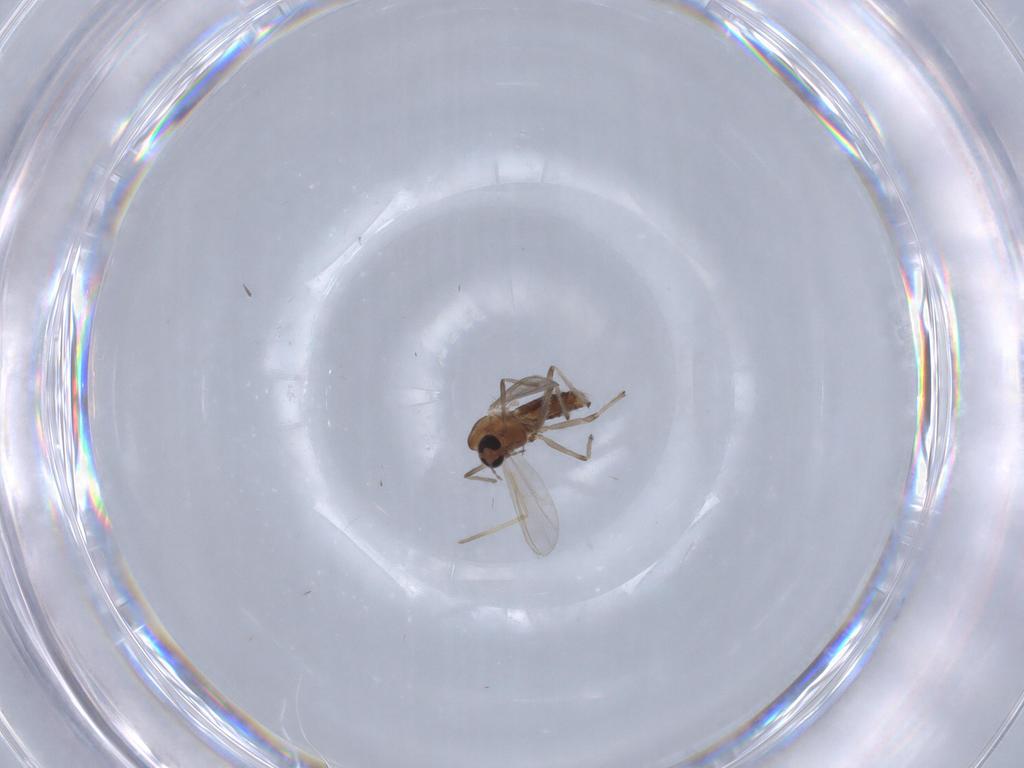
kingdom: Animalia
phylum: Arthropoda
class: Insecta
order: Diptera
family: Chironomidae
